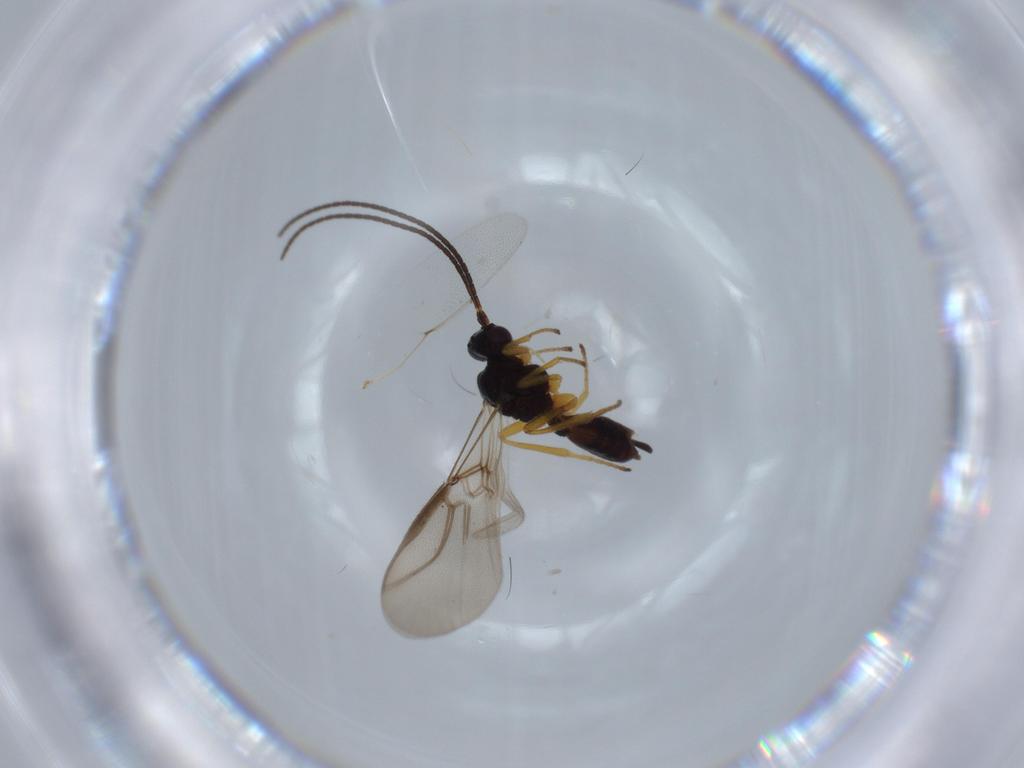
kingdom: Animalia
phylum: Arthropoda
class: Insecta
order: Hymenoptera
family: Braconidae
